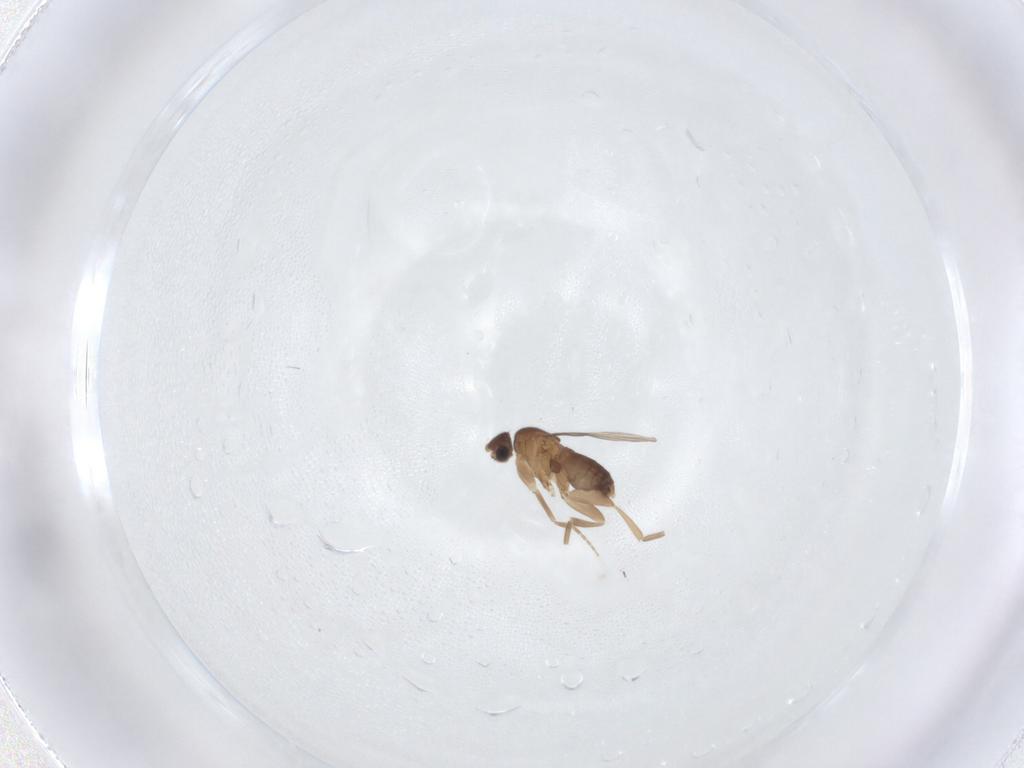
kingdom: Animalia
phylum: Arthropoda
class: Insecta
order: Diptera
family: Phoridae
